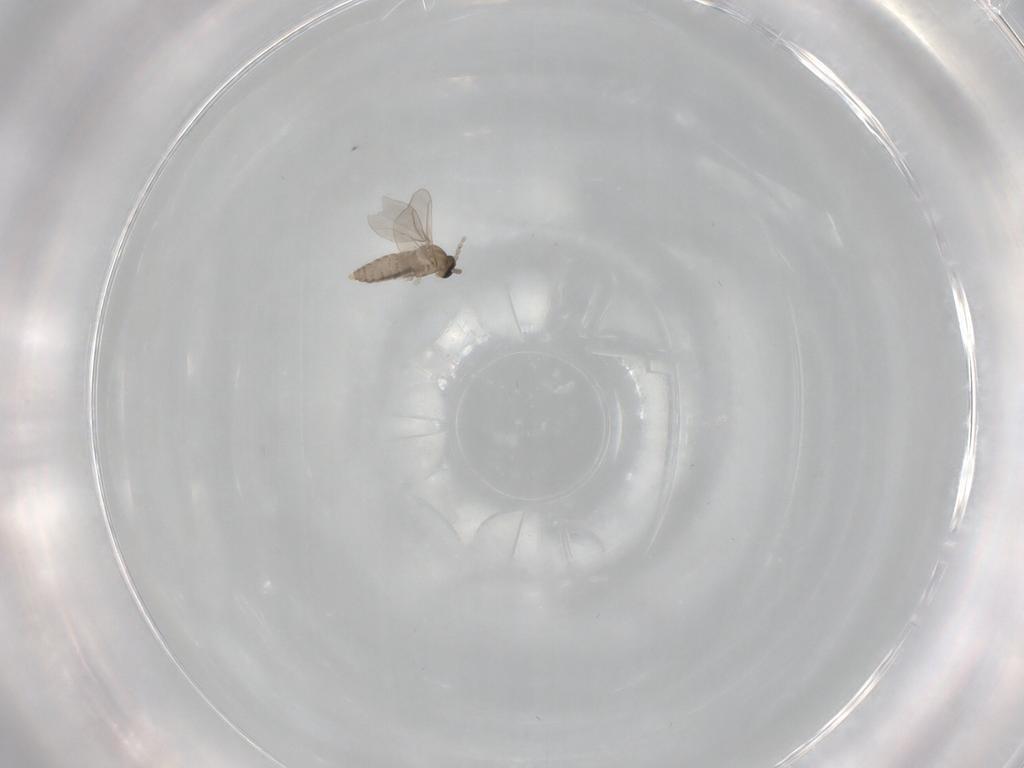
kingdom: Animalia
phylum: Arthropoda
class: Insecta
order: Diptera
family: Cecidomyiidae
